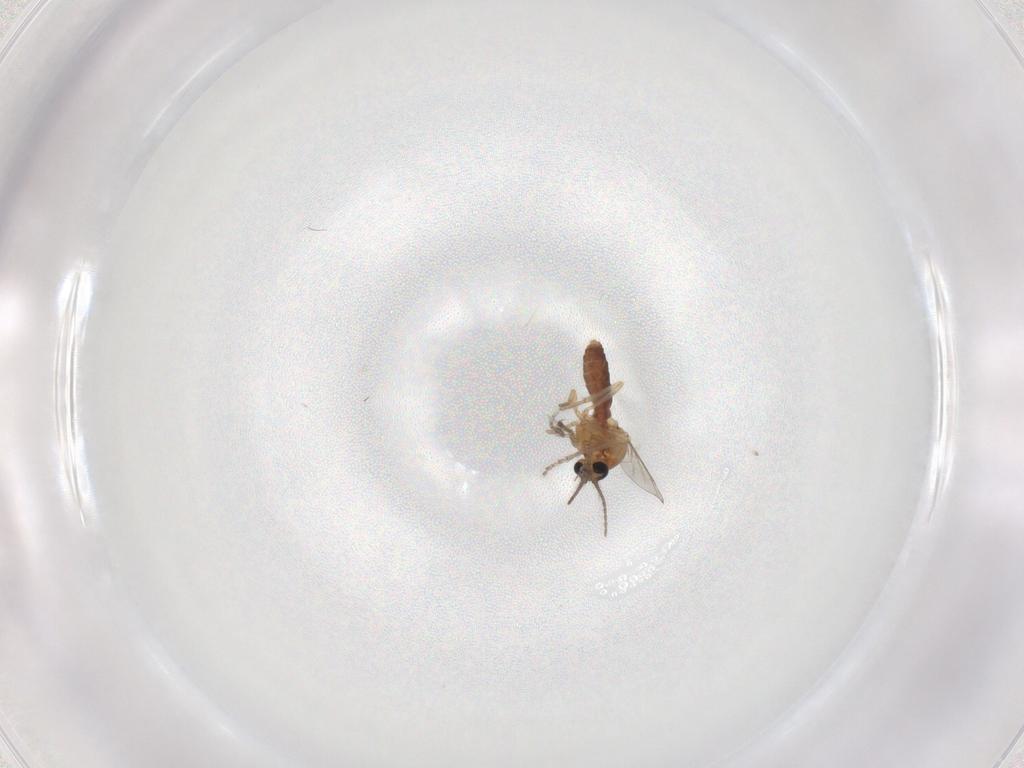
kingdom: Animalia
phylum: Arthropoda
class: Insecta
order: Diptera
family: Ceratopogonidae
